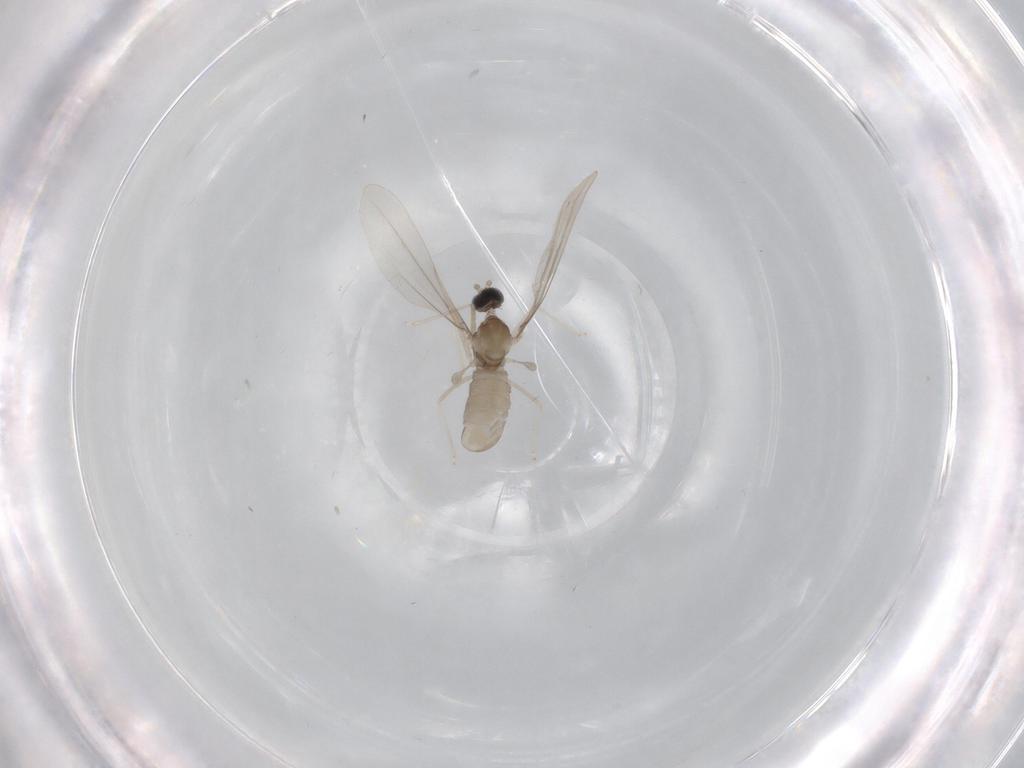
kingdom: Animalia
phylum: Arthropoda
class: Insecta
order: Diptera
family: Cecidomyiidae
